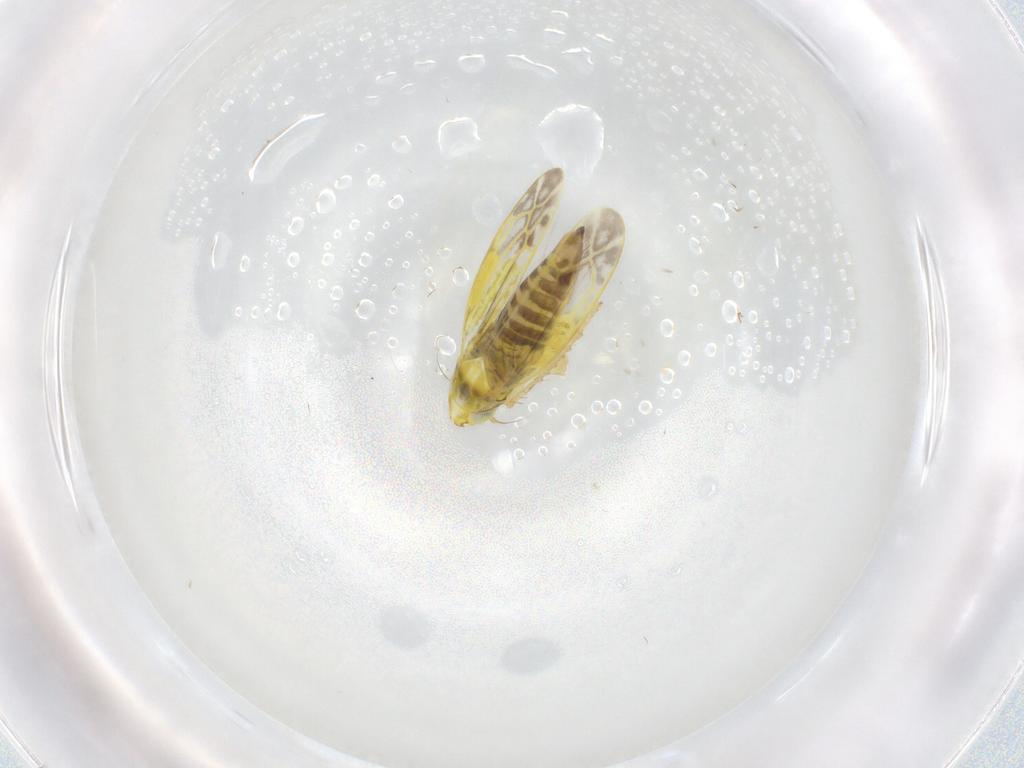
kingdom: Animalia
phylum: Arthropoda
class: Insecta
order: Hemiptera
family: Cicadellidae
